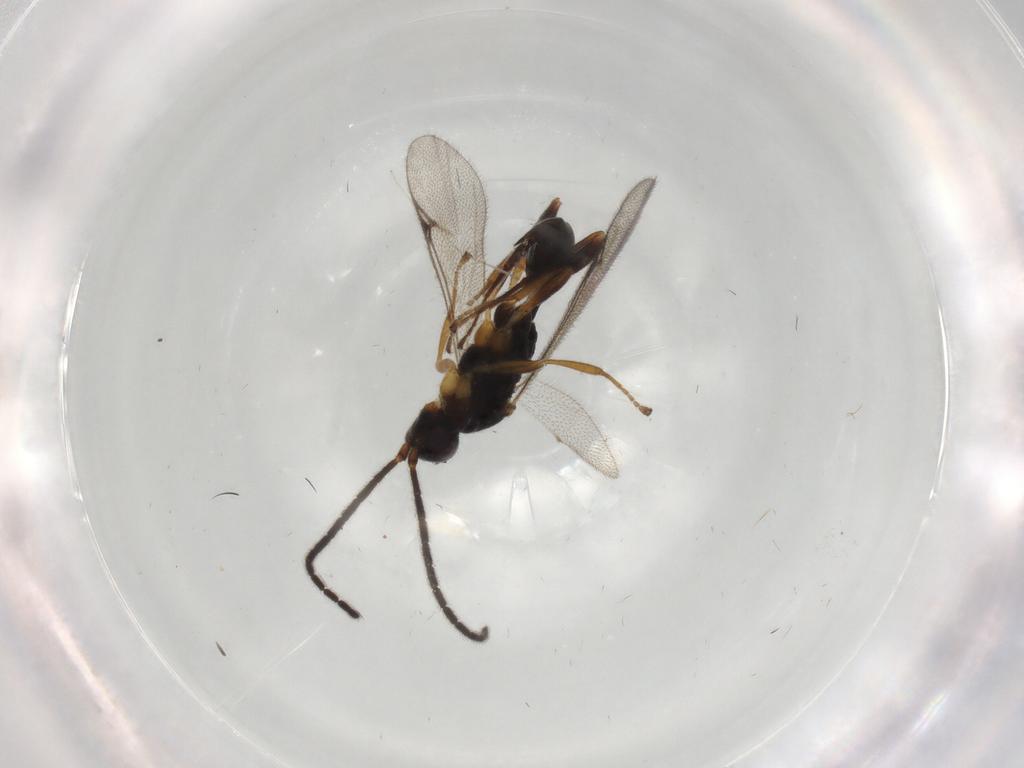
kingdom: Animalia
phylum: Arthropoda
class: Insecta
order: Hymenoptera
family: Proctotrupidae
